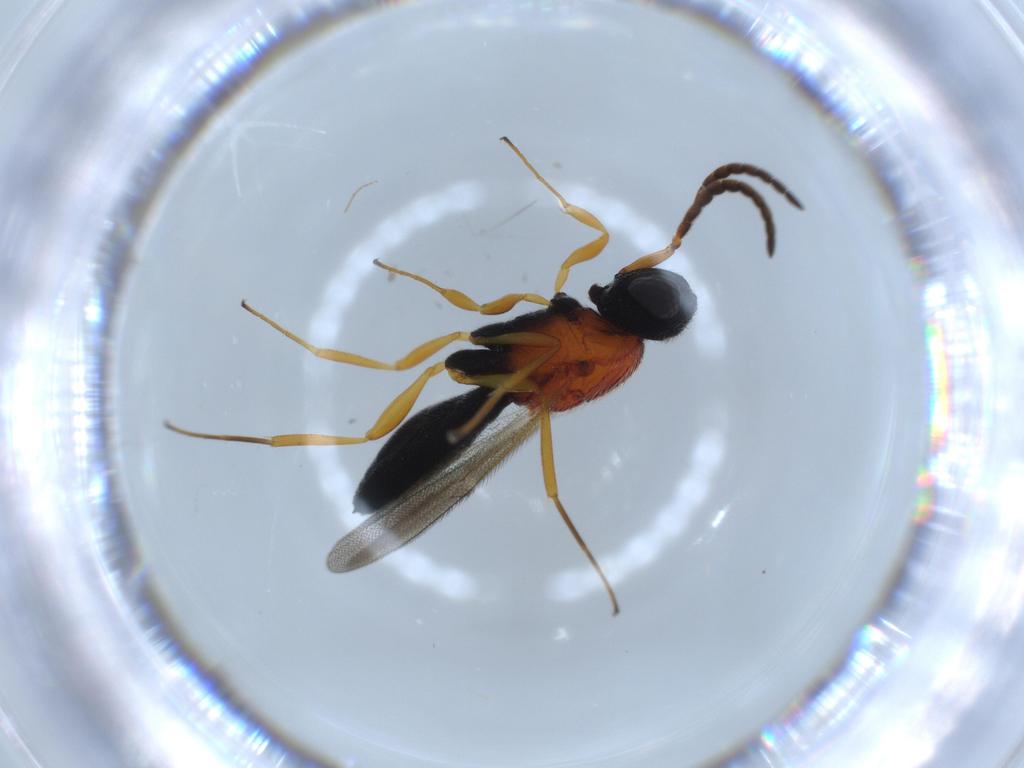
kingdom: Animalia
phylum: Arthropoda
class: Insecta
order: Hymenoptera
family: Scelionidae
